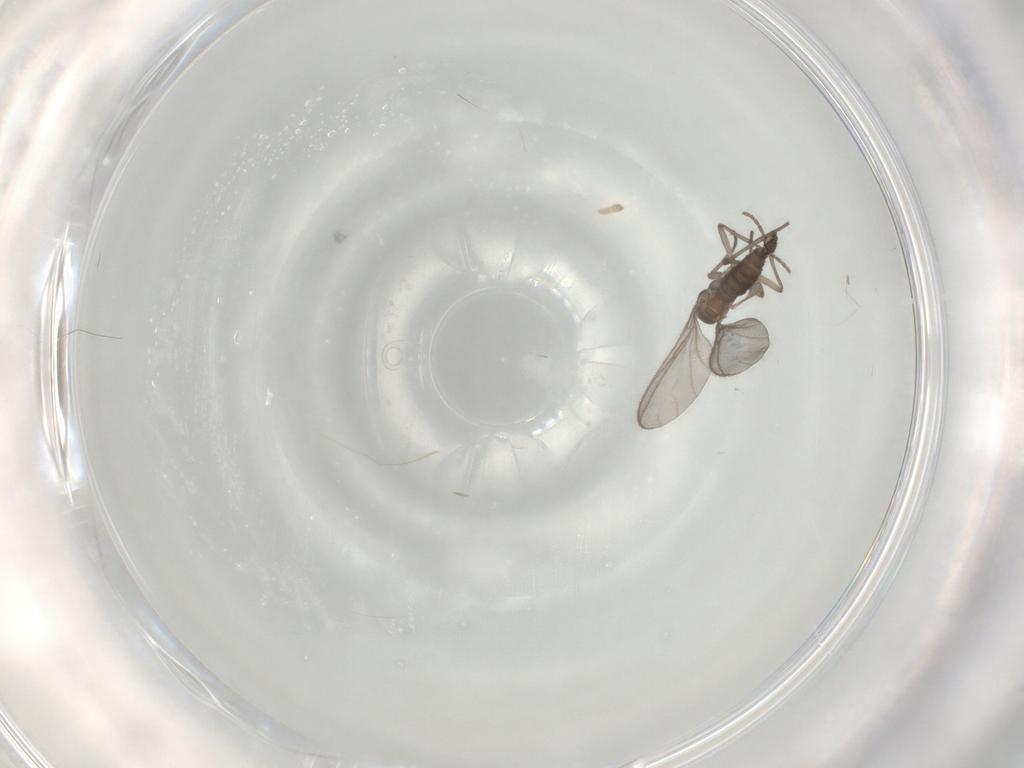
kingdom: Animalia
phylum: Arthropoda
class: Insecta
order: Diptera
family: Sciaridae
